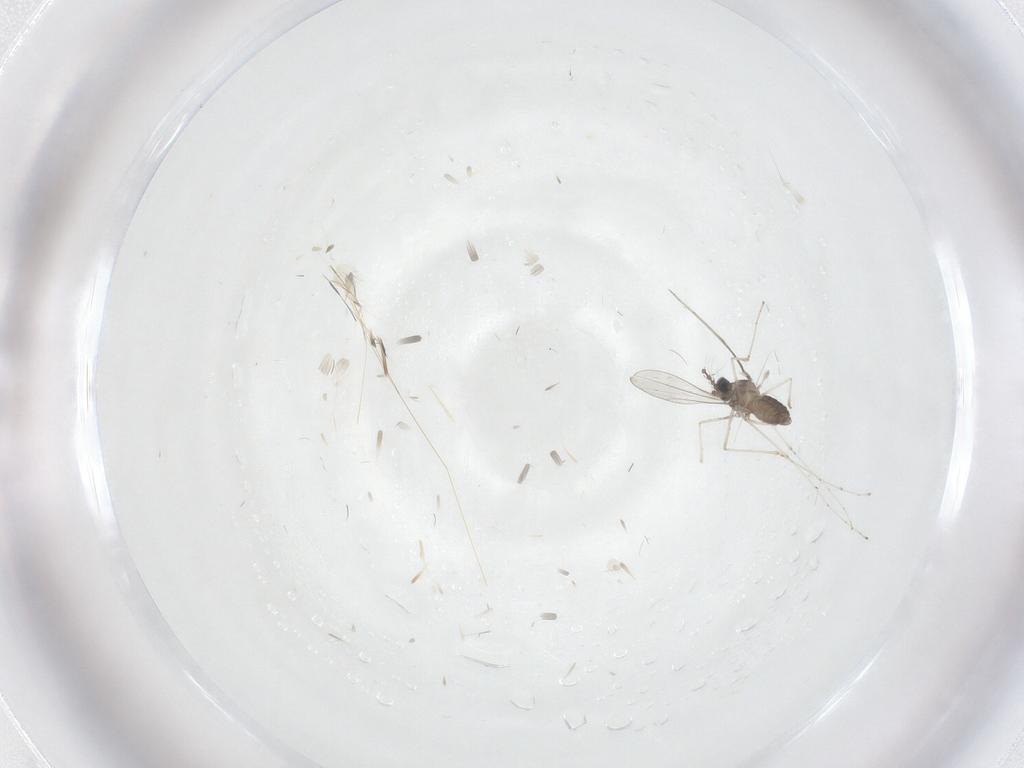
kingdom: Animalia
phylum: Arthropoda
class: Insecta
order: Diptera
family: Cecidomyiidae
